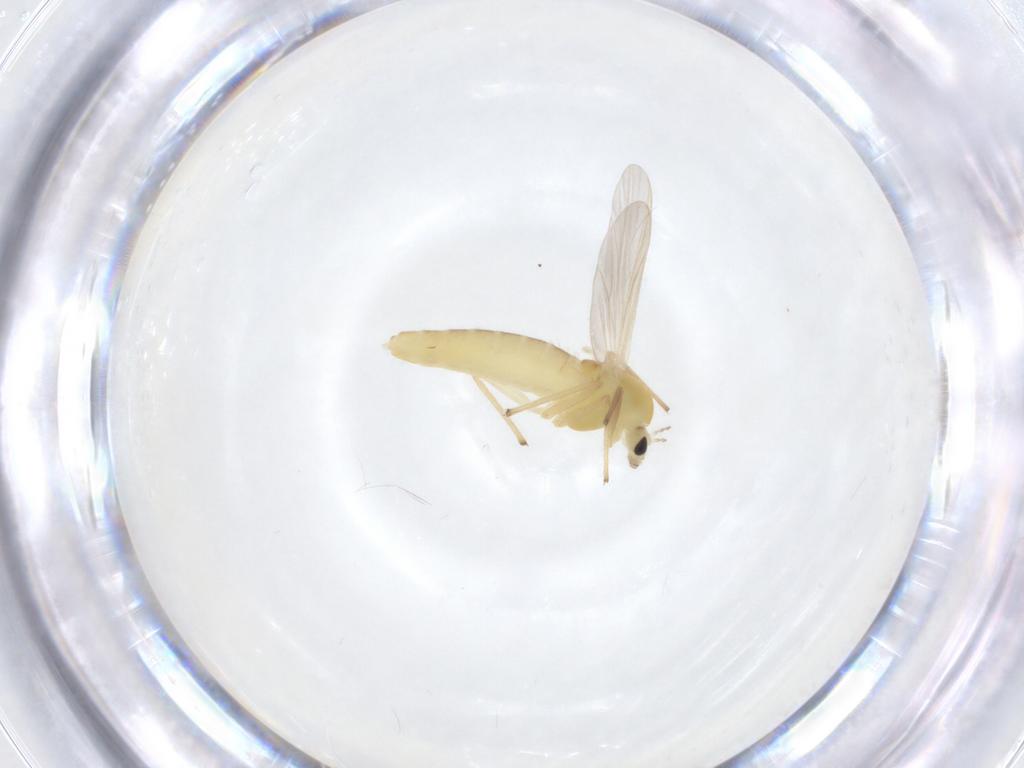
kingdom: Animalia
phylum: Arthropoda
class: Insecta
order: Diptera
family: Chironomidae
